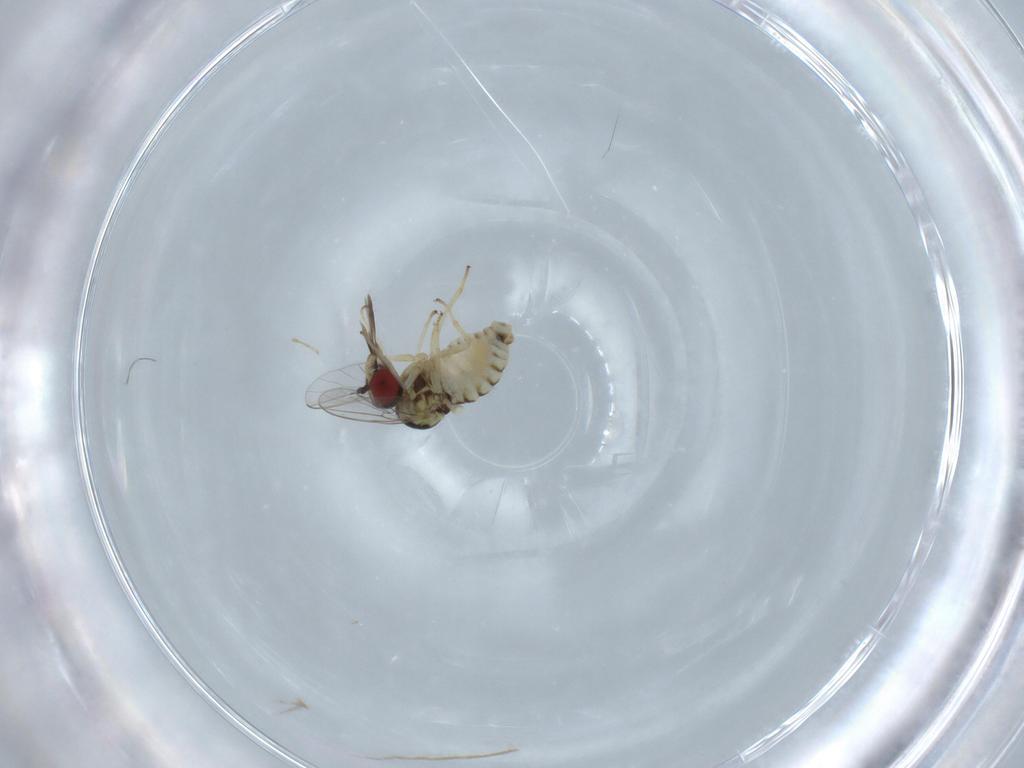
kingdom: Animalia
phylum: Arthropoda
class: Insecta
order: Diptera
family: Bombyliidae
